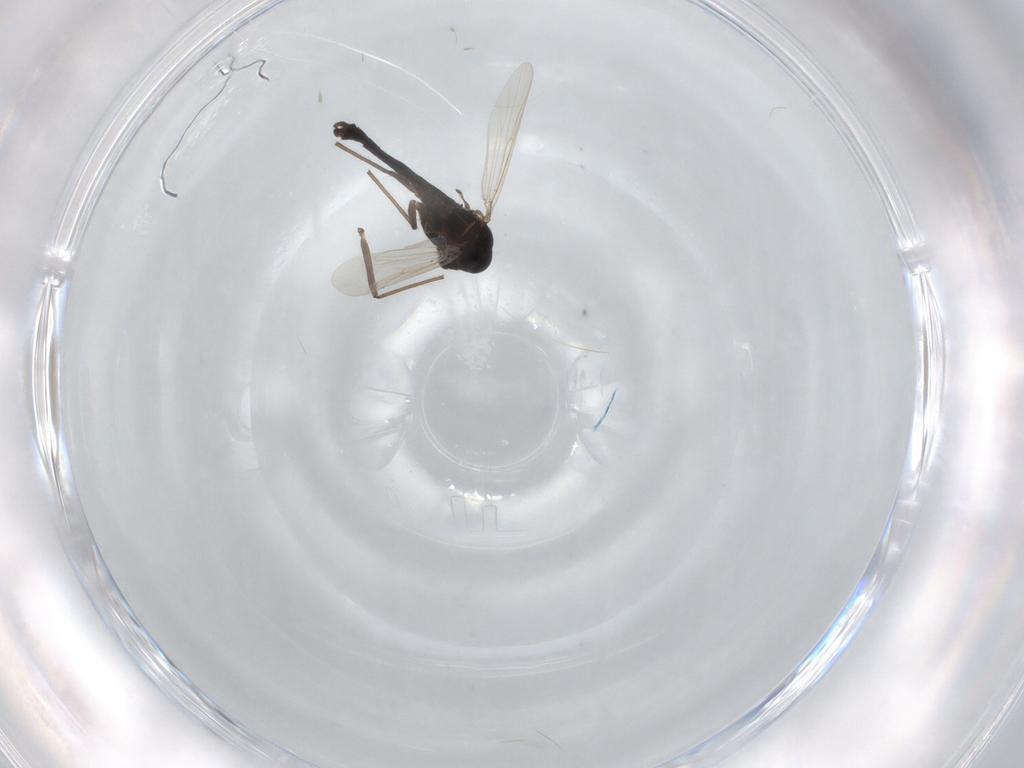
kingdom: Animalia
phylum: Arthropoda
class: Insecta
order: Diptera
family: Chironomidae
